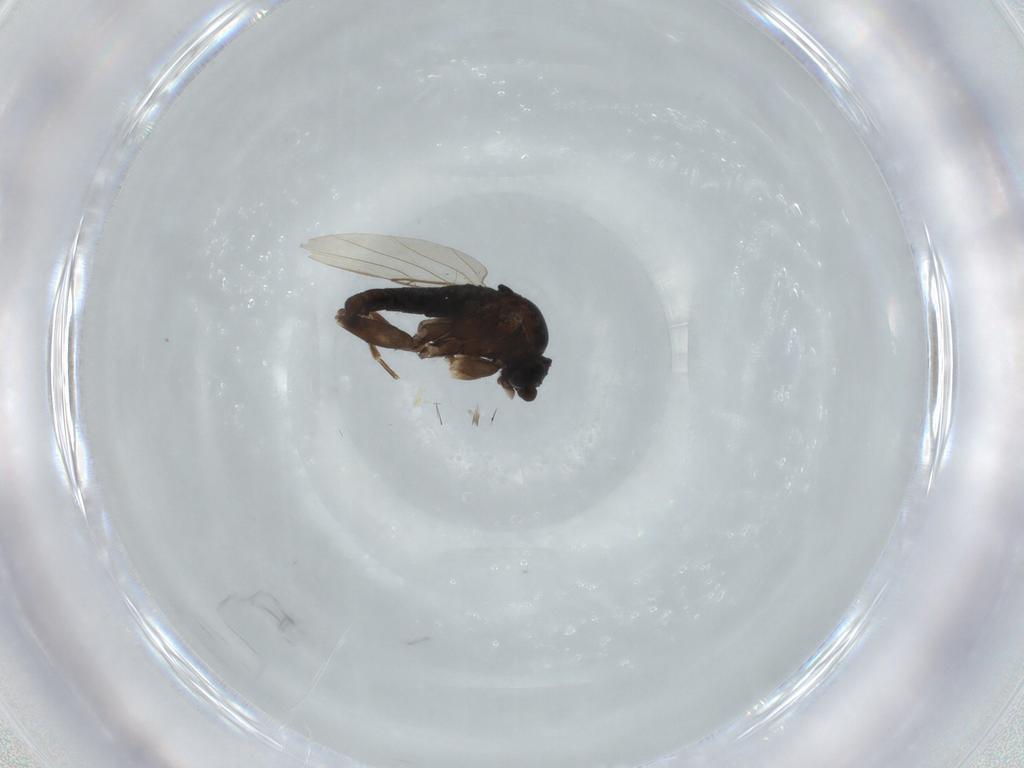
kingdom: Animalia
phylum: Arthropoda
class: Insecta
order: Diptera
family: Phoridae
